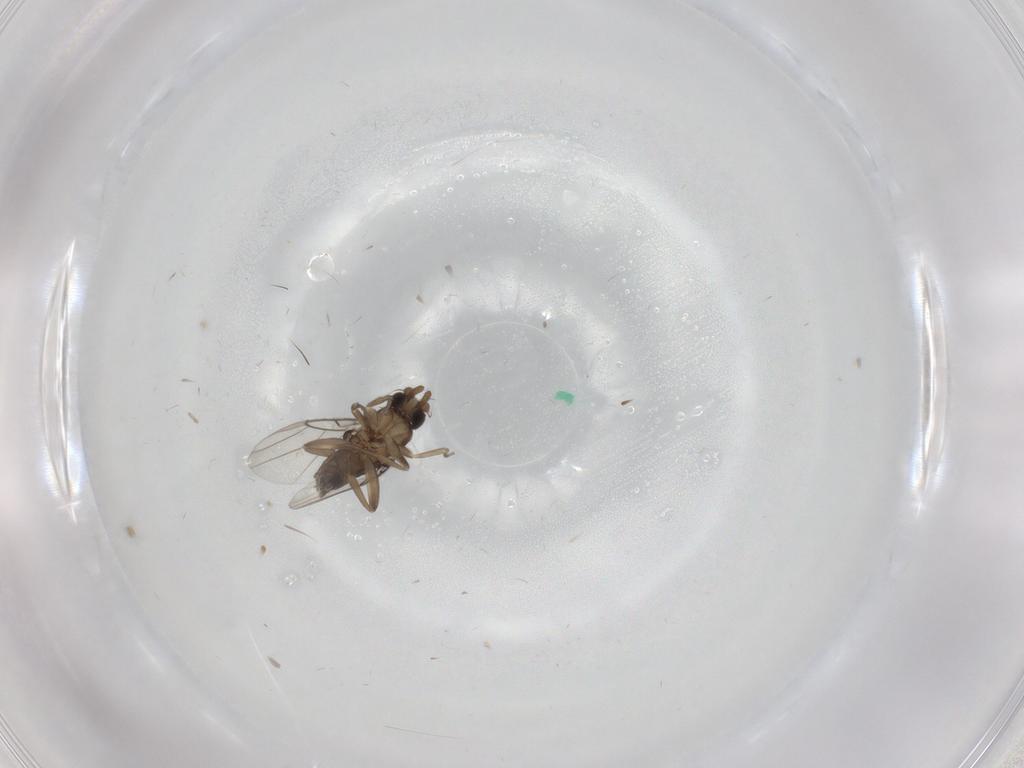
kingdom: Animalia
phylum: Arthropoda
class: Insecta
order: Diptera
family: Phoridae
